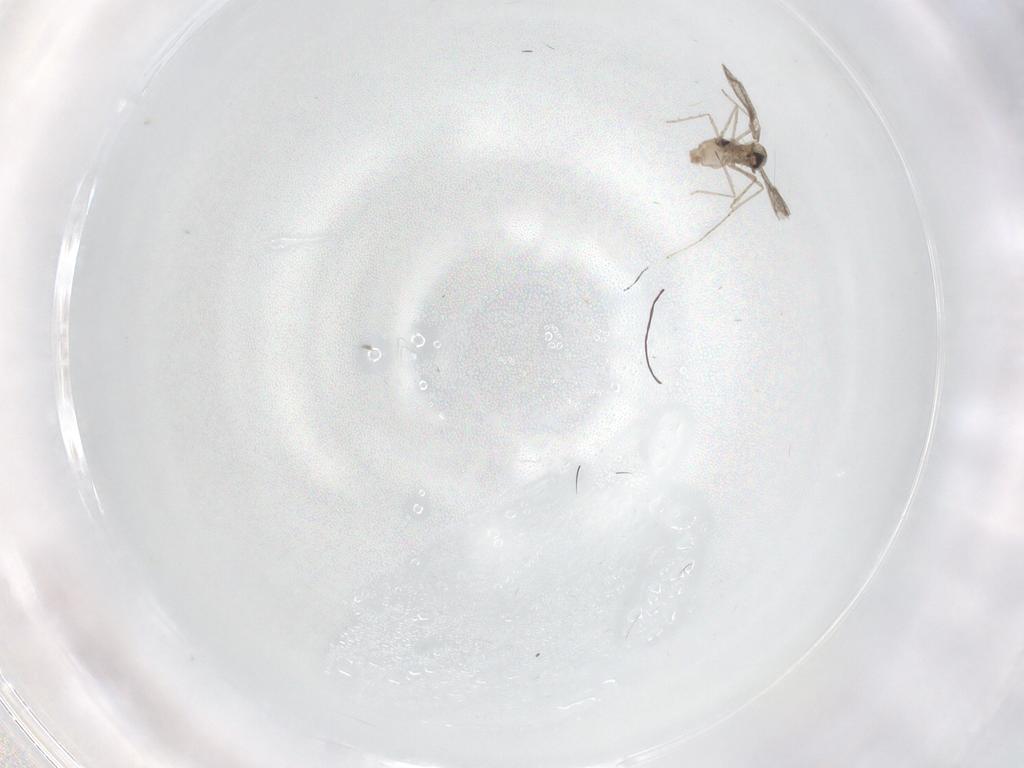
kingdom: Animalia
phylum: Arthropoda
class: Insecta
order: Diptera
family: Cecidomyiidae
